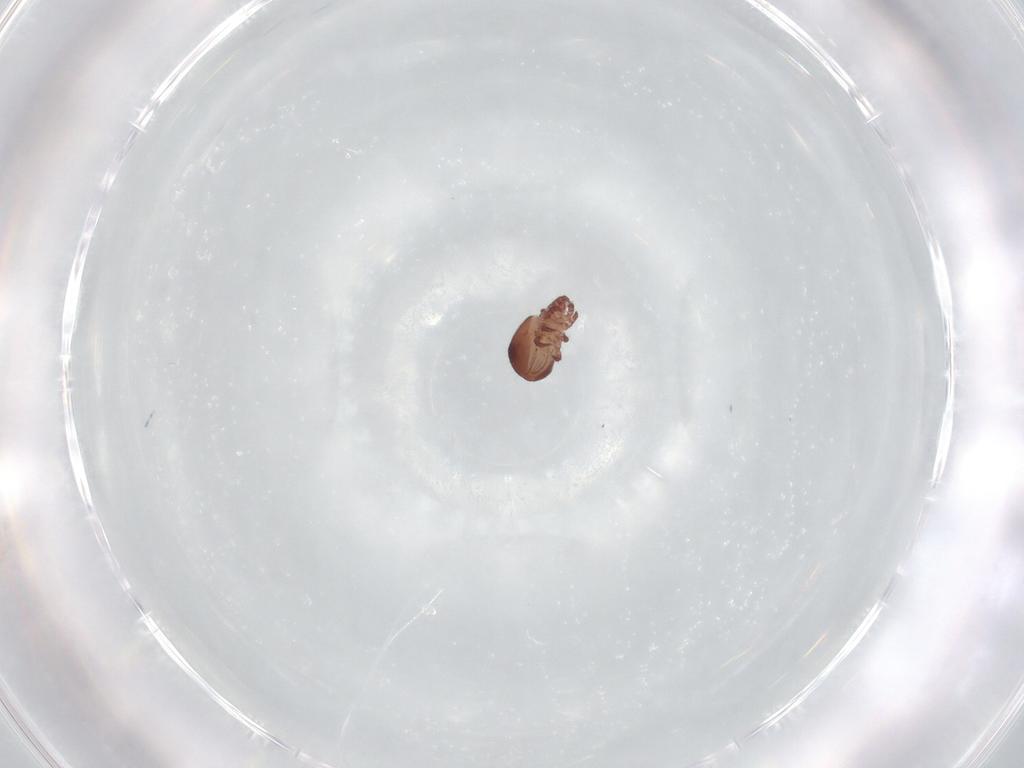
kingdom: Animalia
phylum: Arthropoda
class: Arachnida
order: Sarcoptiformes
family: Trhypochthoniidae
